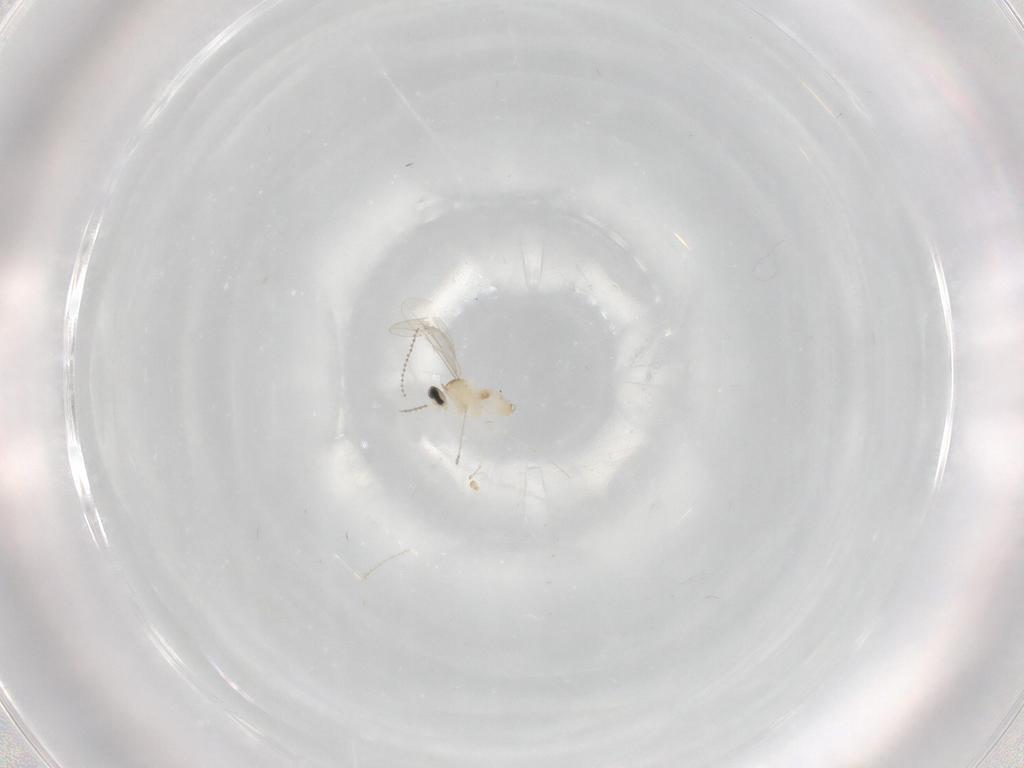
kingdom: Animalia
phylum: Arthropoda
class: Insecta
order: Diptera
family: Cecidomyiidae
